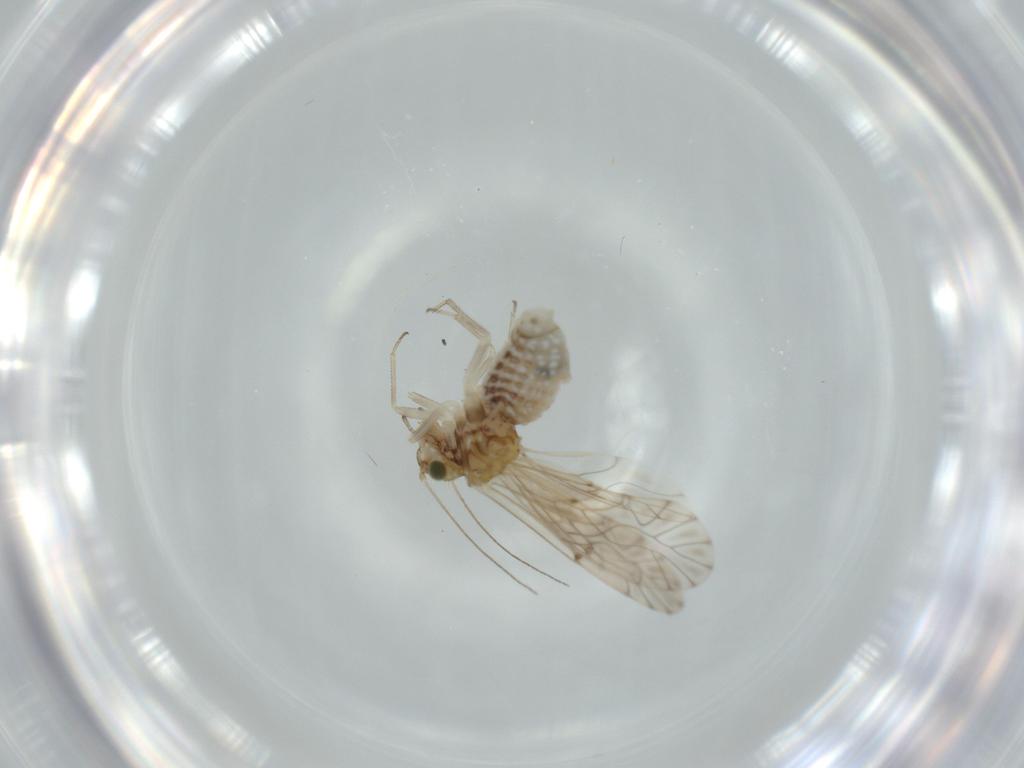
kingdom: Animalia
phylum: Arthropoda
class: Insecta
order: Psocodea
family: Lachesillidae
